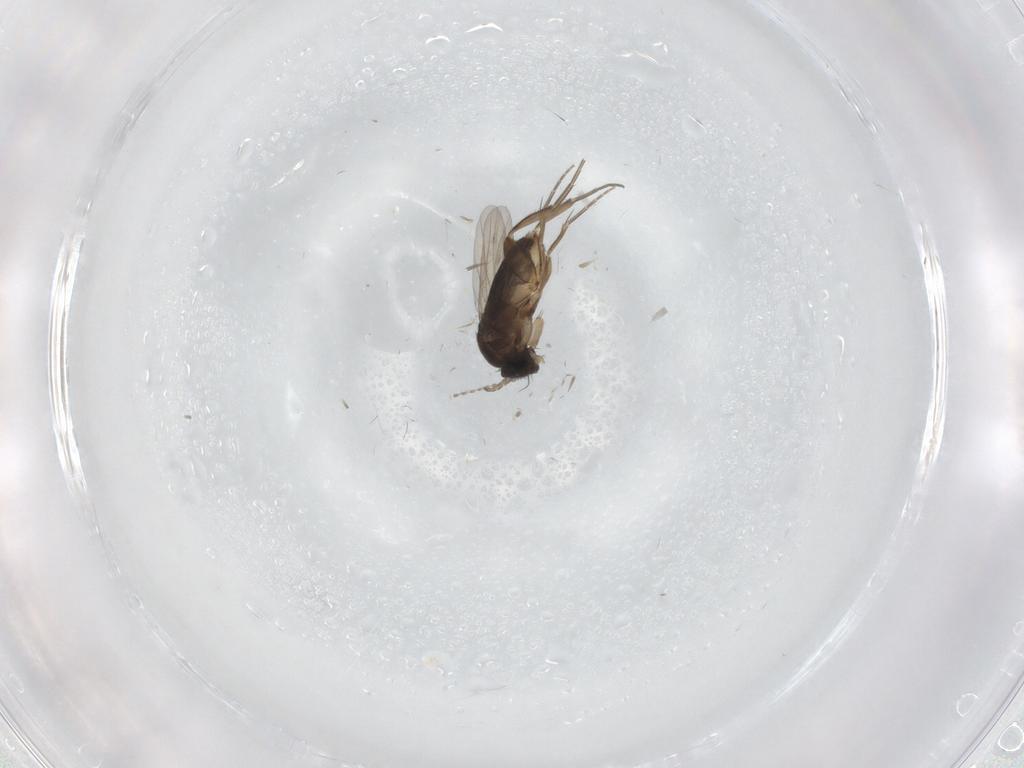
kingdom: Animalia
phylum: Arthropoda
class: Insecta
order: Diptera
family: Phoridae
